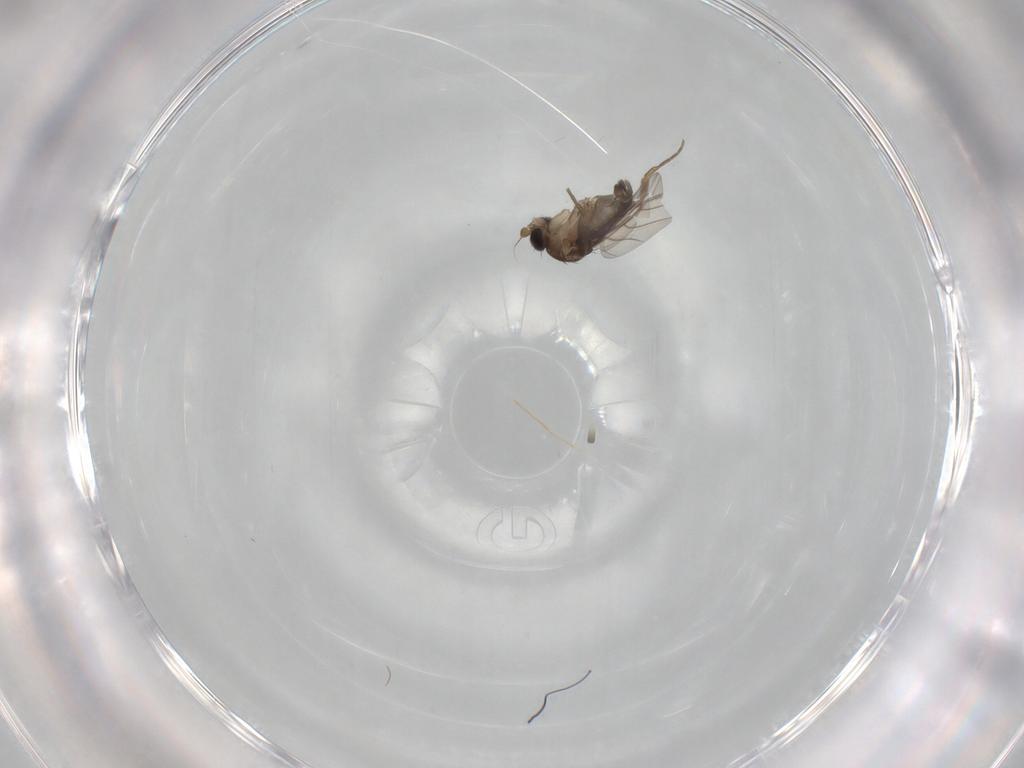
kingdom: Animalia
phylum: Arthropoda
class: Insecta
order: Diptera
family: Phoridae
